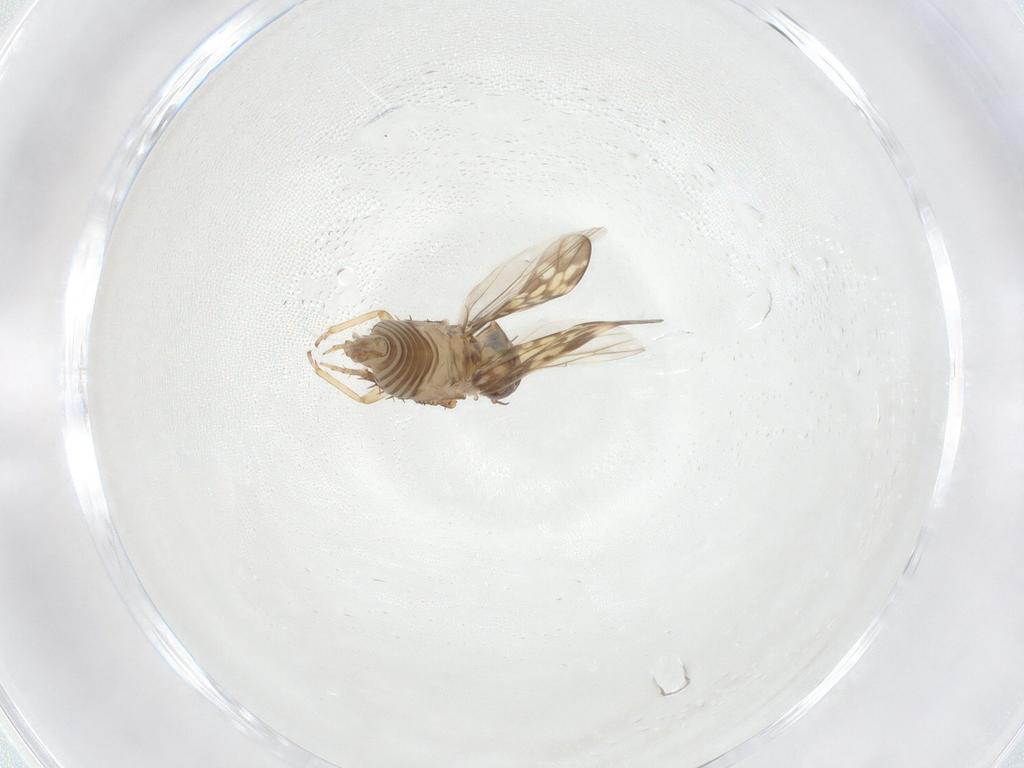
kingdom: Animalia
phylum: Arthropoda
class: Insecta
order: Hemiptera
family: Cicadellidae
